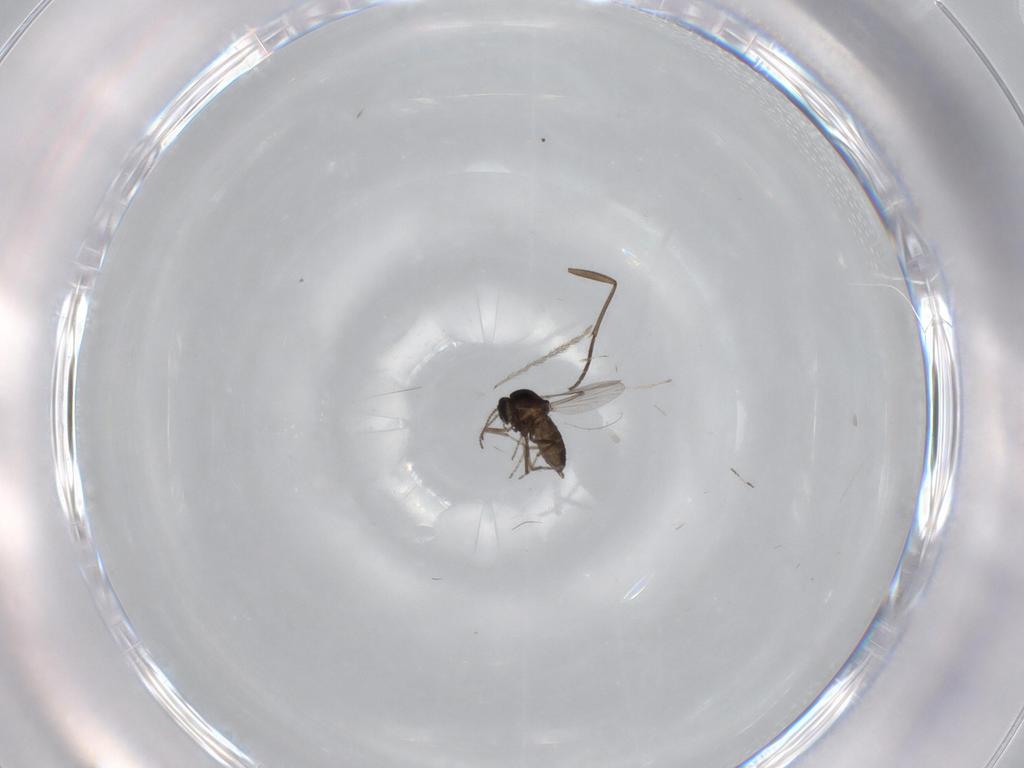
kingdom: Animalia
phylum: Arthropoda
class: Insecta
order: Diptera
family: Ceratopogonidae
